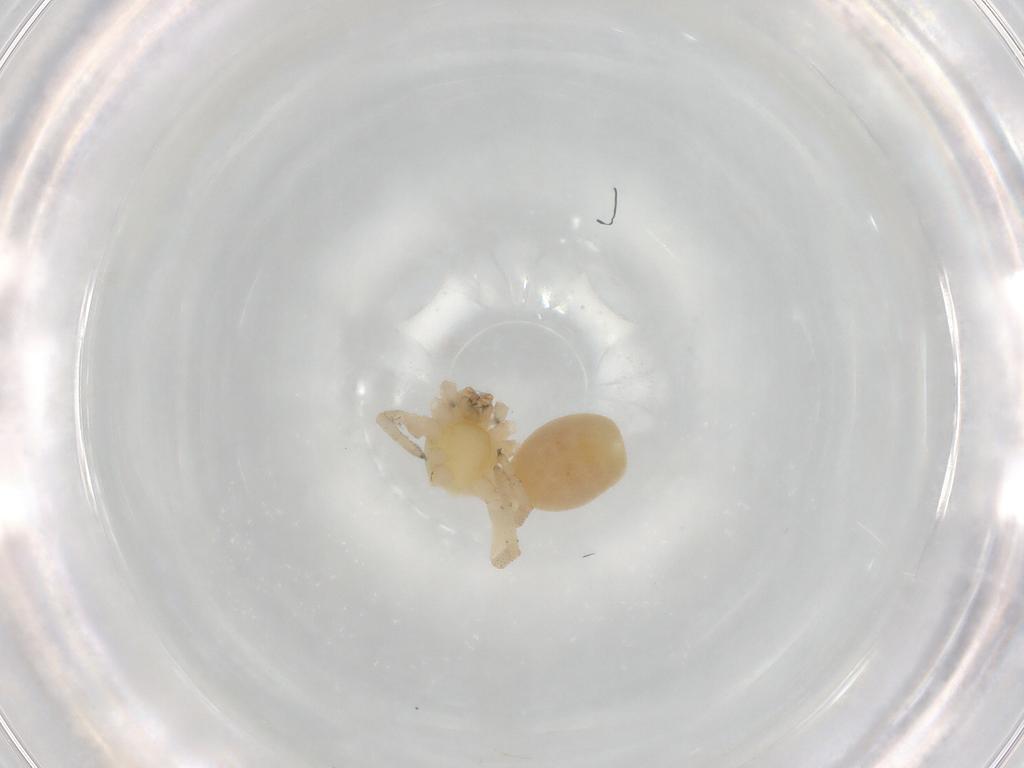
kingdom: Animalia
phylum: Arthropoda
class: Arachnida
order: Araneae
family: Clubionidae
